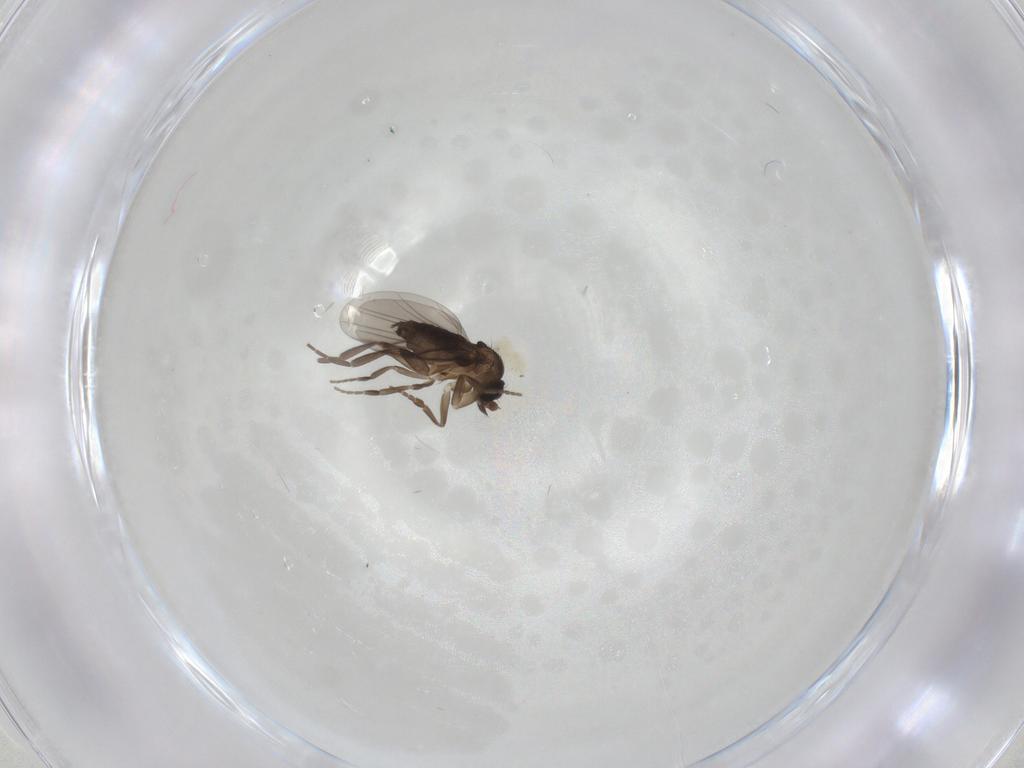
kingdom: Animalia
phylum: Arthropoda
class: Insecta
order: Diptera
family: Phoridae
